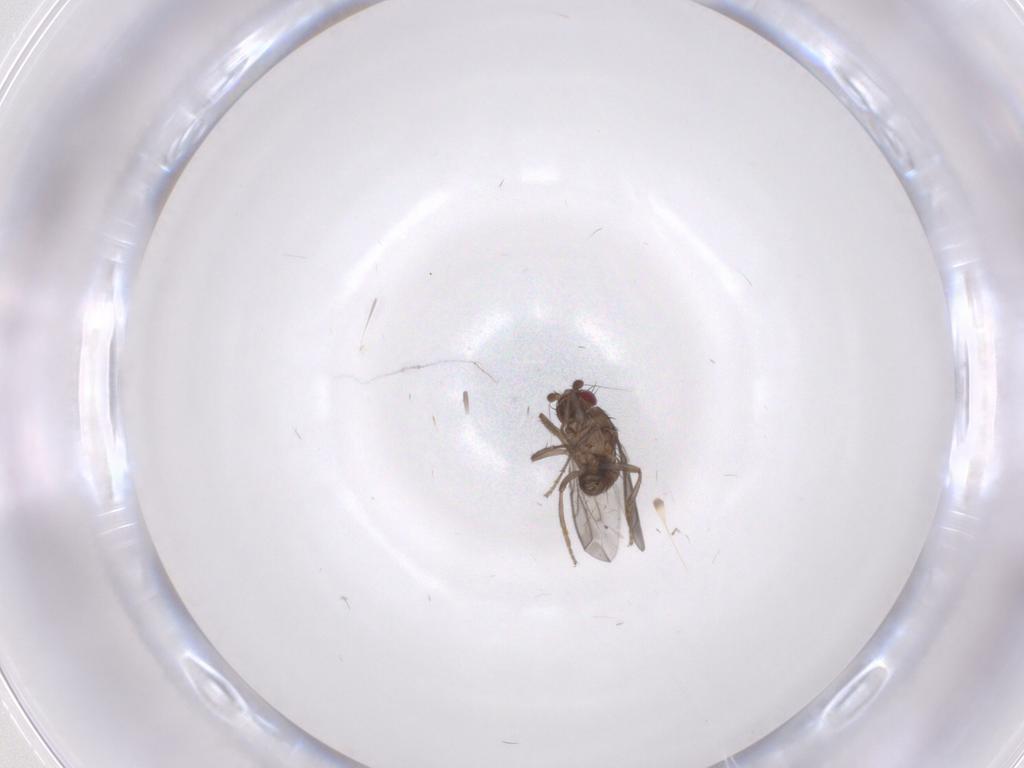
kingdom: Animalia
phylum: Arthropoda
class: Insecta
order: Diptera
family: Sphaeroceridae
